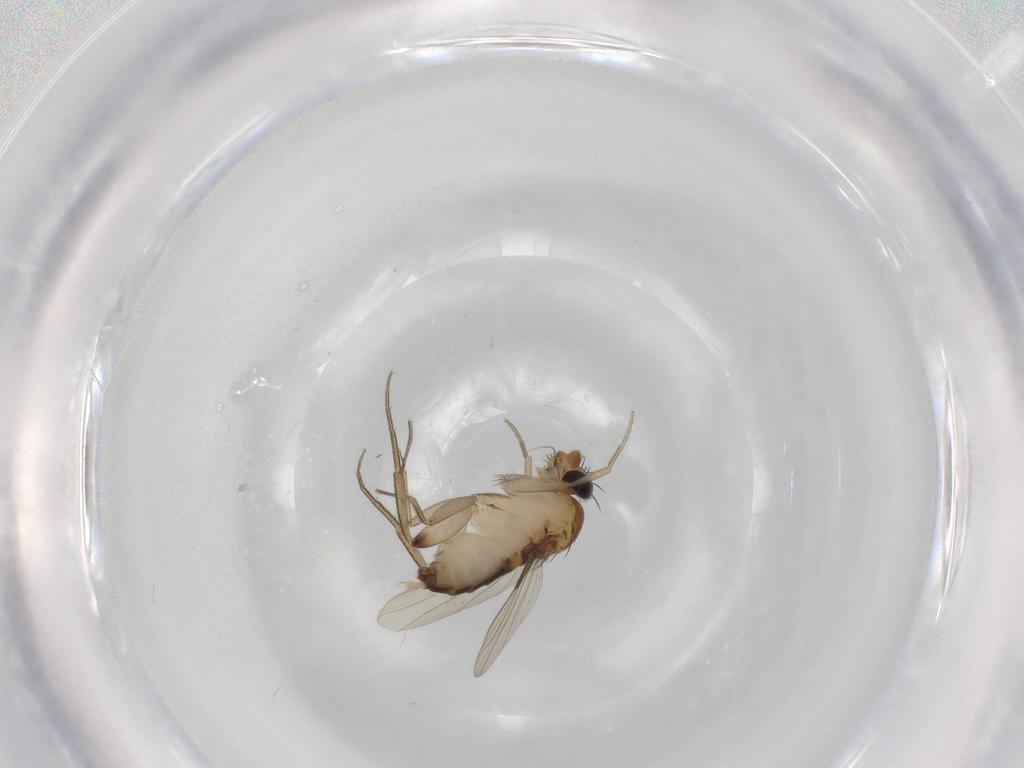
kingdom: Animalia
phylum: Arthropoda
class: Insecta
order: Diptera
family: Phoridae
